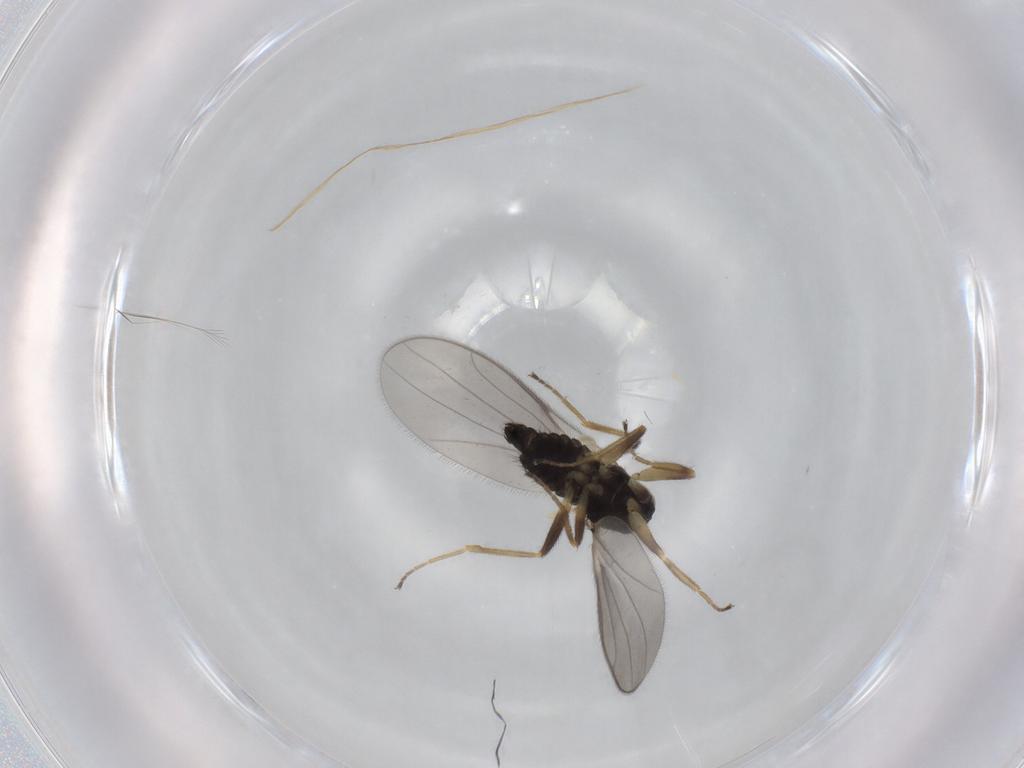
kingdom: Animalia
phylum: Arthropoda
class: Insecta
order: Diptera
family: Hybotidae
